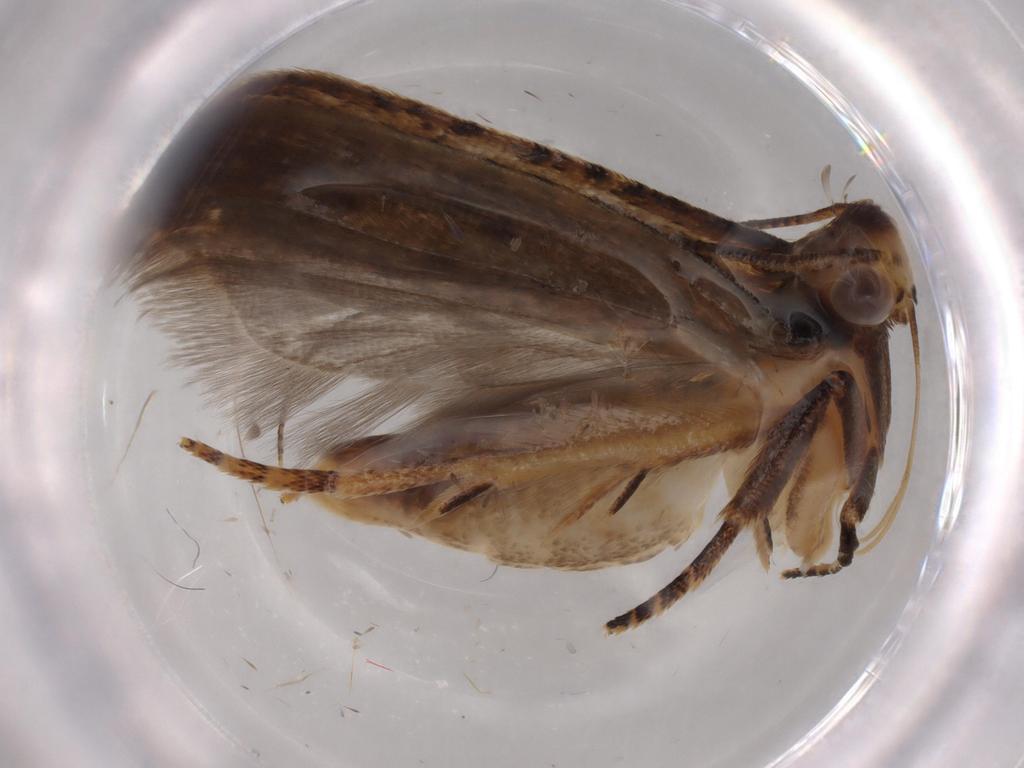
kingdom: Animalia
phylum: Arthropoda
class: Insecta
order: Lepidoptera
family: Gelechiidae
